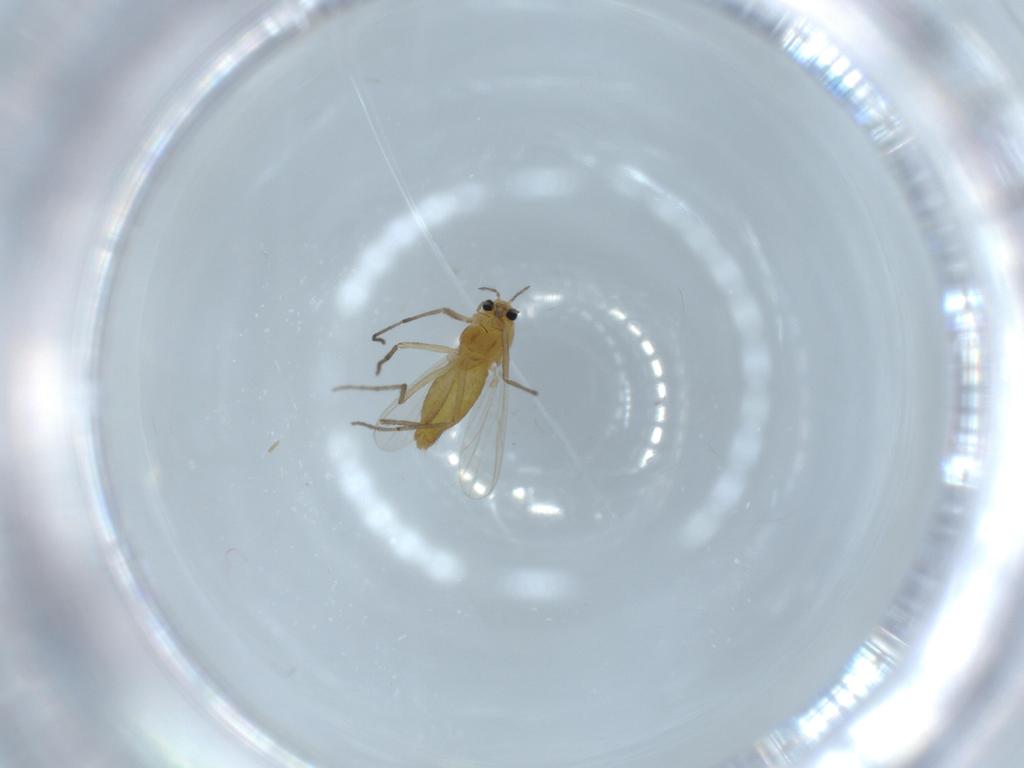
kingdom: Animalia
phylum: Arthropoda
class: Insecta
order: Diptera
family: Chironomidae
